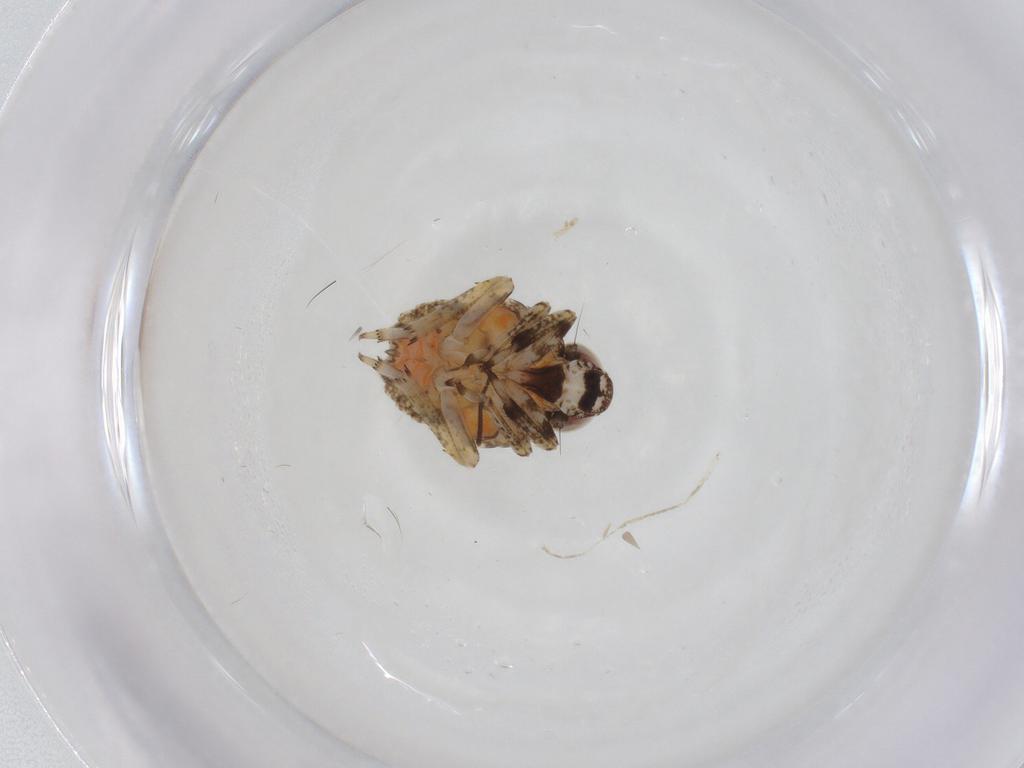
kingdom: Animalia
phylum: Arthropoda
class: Insecta
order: Hemiptera
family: Issidae
